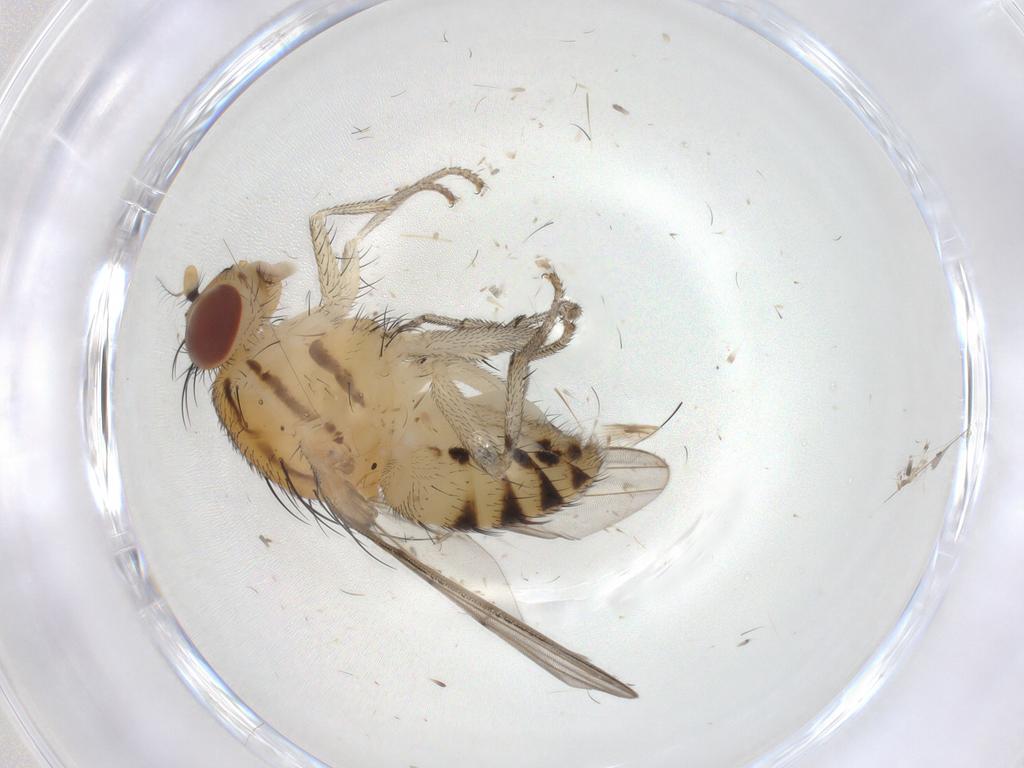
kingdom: Animalia
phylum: Arthropoda
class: Insecta
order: Diptera
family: Lauxaniidae
